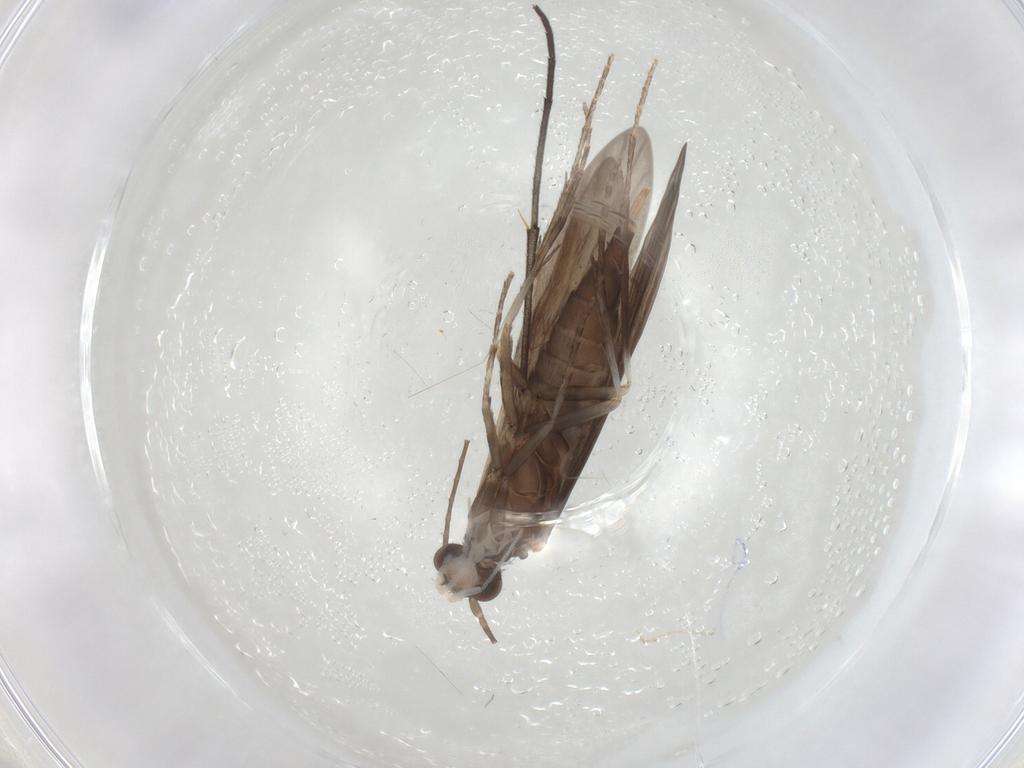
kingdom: Animalia
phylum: Arthropoda
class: Insecta
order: Trichoptera
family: Xiphocentronidae
